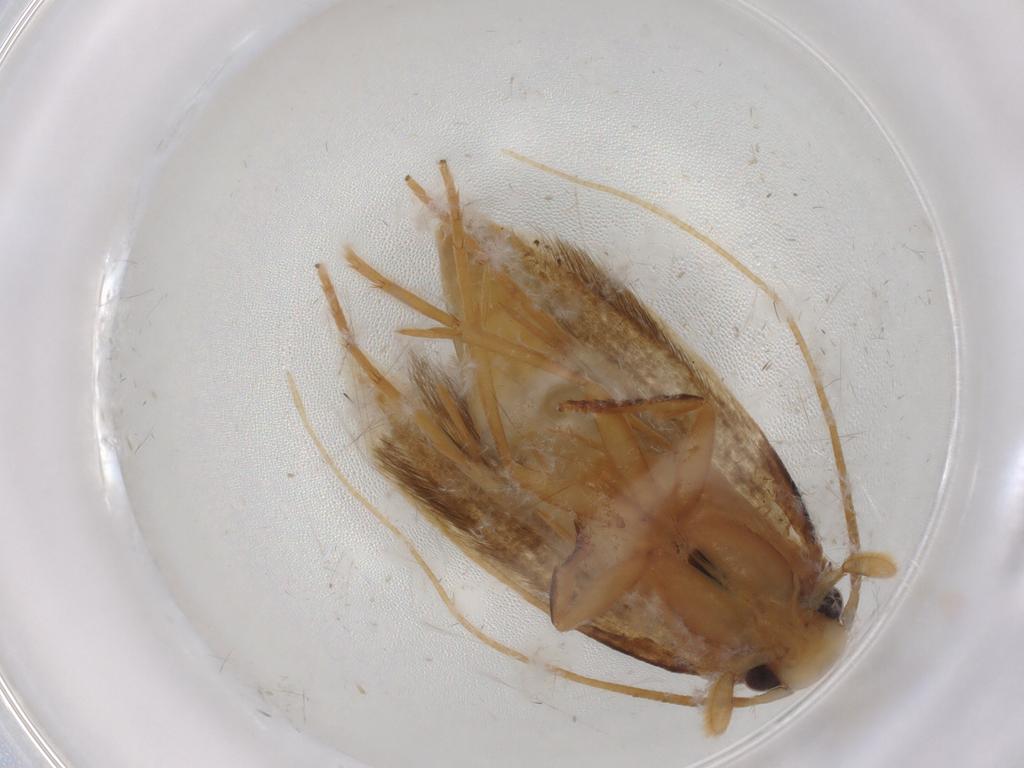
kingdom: Animalia
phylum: Arthropoda
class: Insecta
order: Lepidoptera
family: Tineidae
